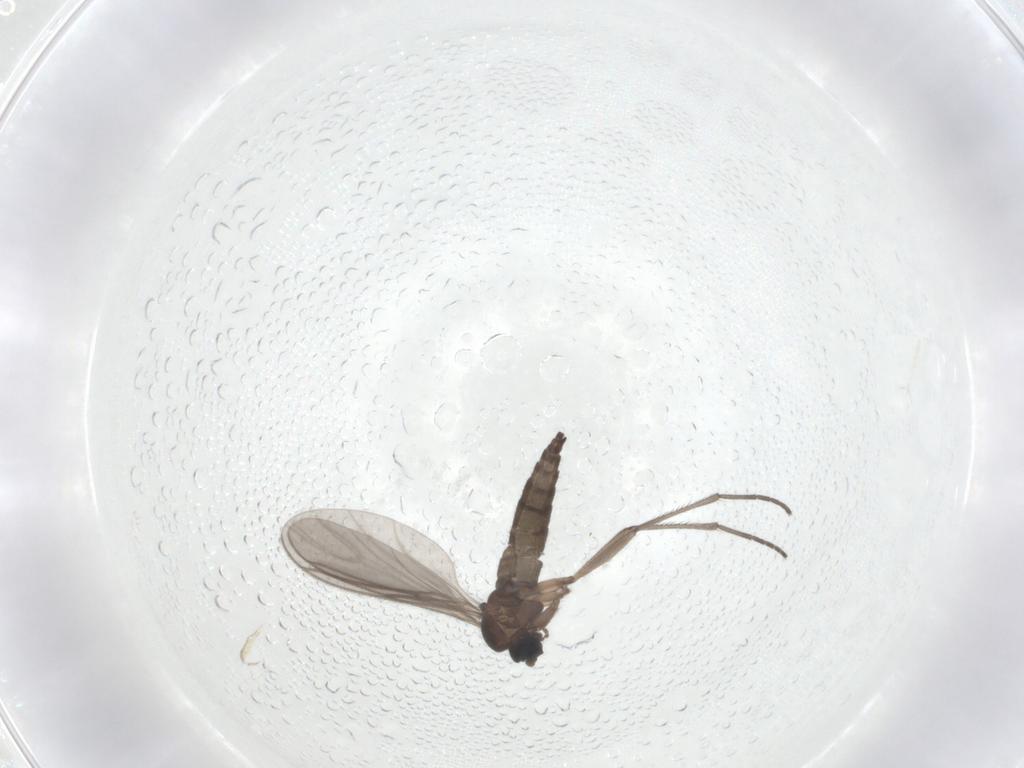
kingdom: Animalia
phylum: Arthropoda
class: Insecta
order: Diptera
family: Sciaridae
